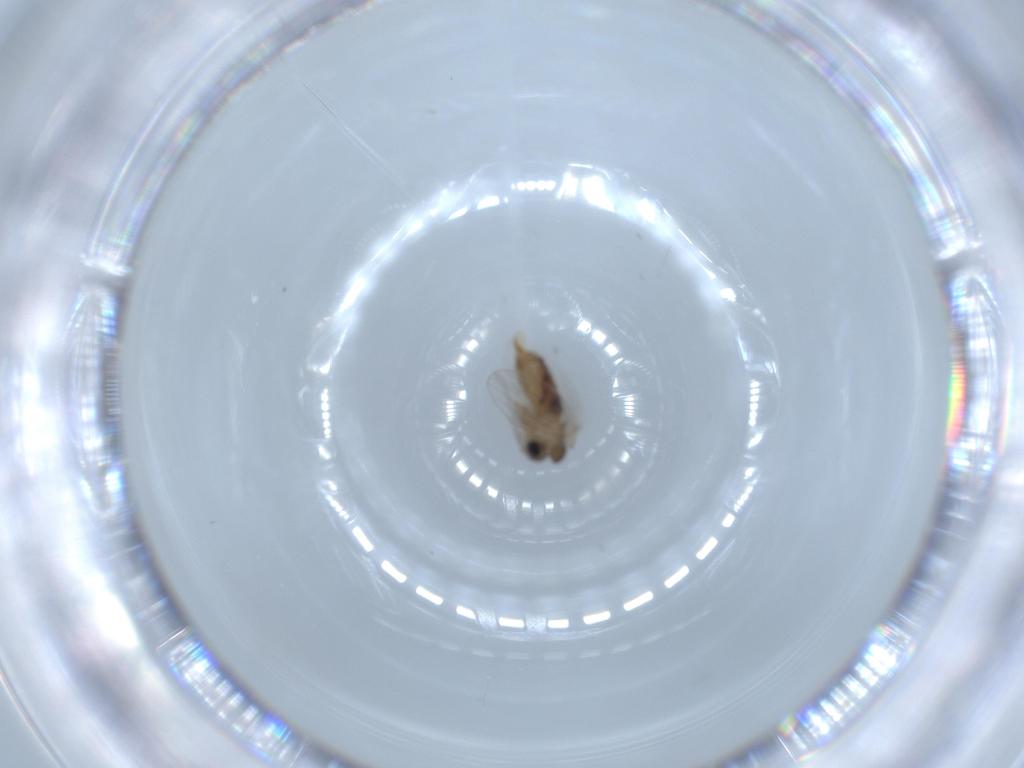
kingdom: Animalia
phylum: Arthropoda
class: Insecta
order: Diptera
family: Psychodidae
